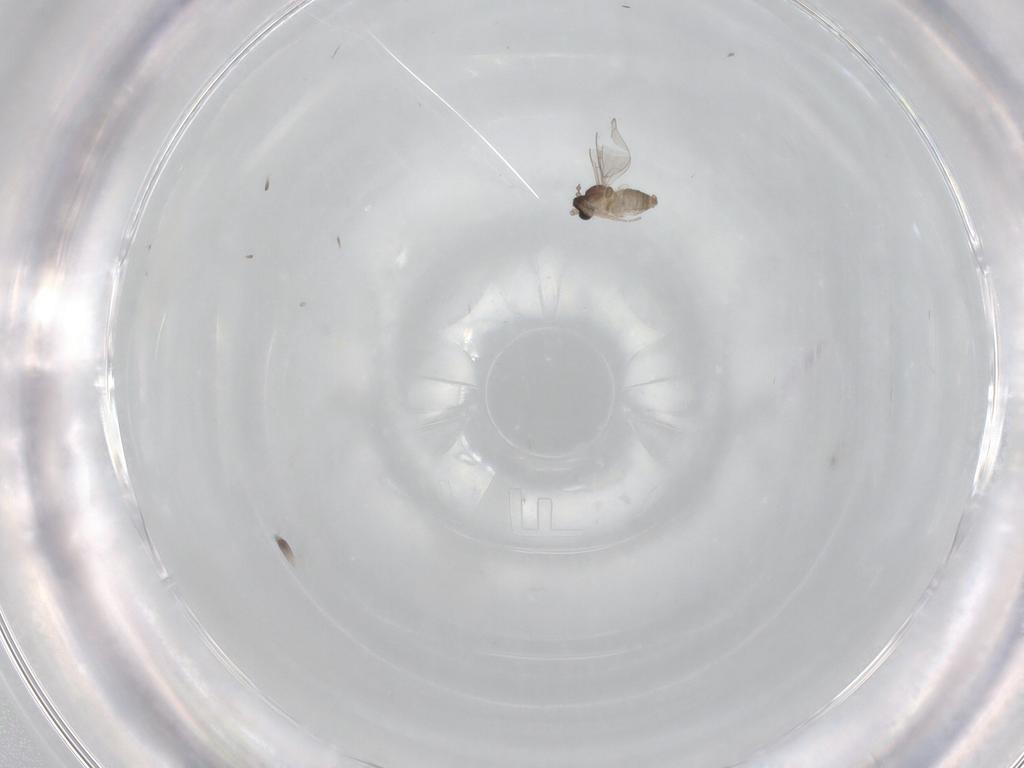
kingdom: Animalia
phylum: Arthropoda
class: Insecta
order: Diptera
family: Cecidomyiidae
